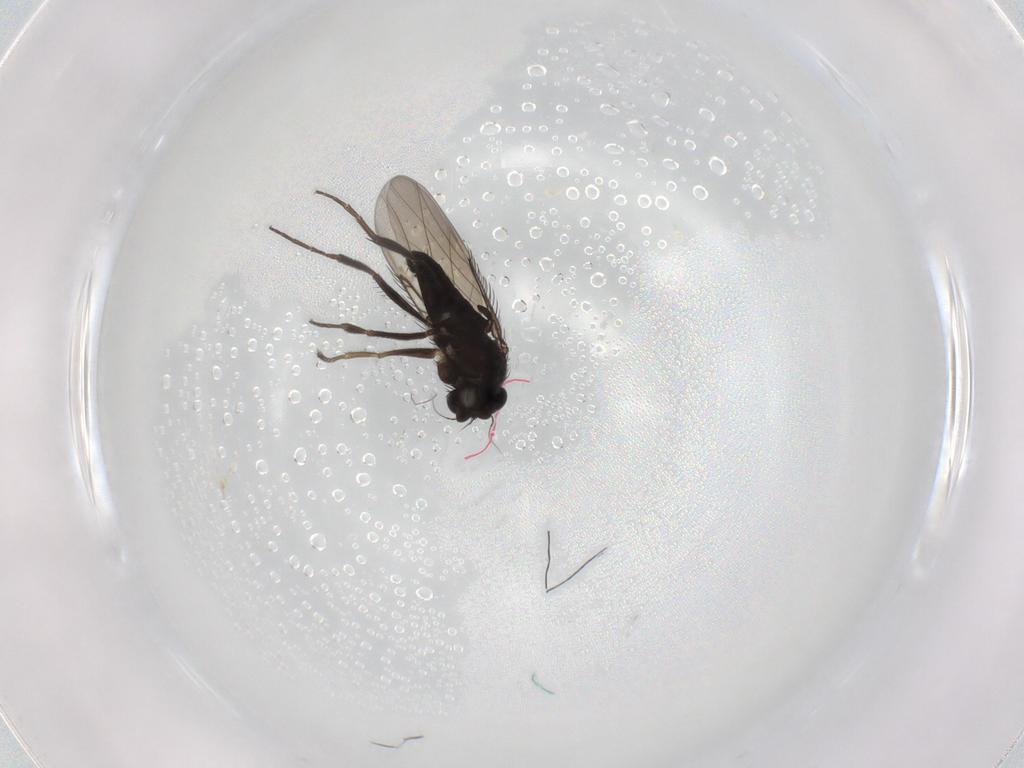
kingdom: Animalia
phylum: Arthropoda
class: Insecta
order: Diptera
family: Phoridae
